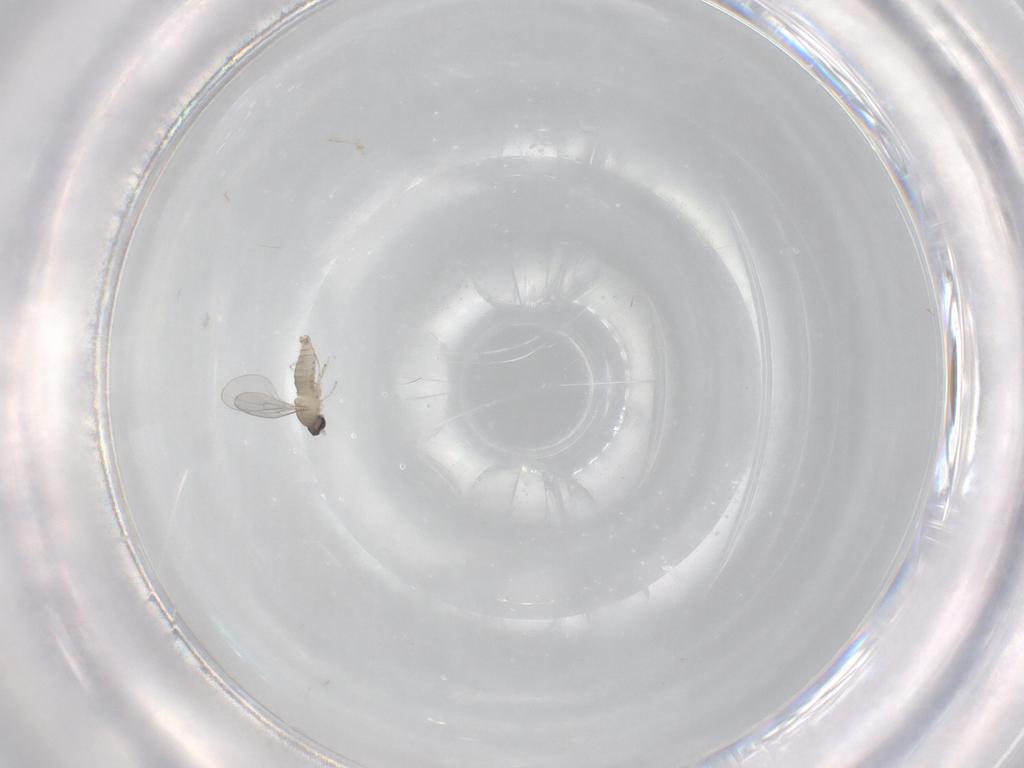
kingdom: Animalia
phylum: Arthropoda
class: Insecta
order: Diptera
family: Cecidomyiidae
